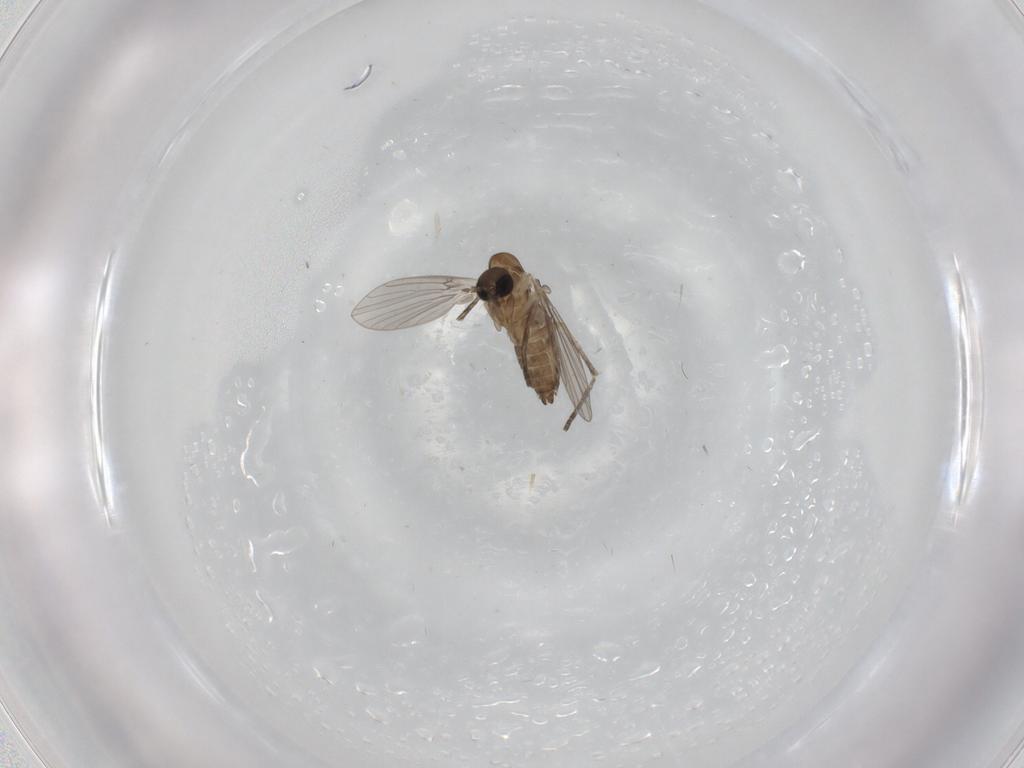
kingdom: Animalia
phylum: Arthropoda
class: Insecta
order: Diptera
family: Psychodidae
